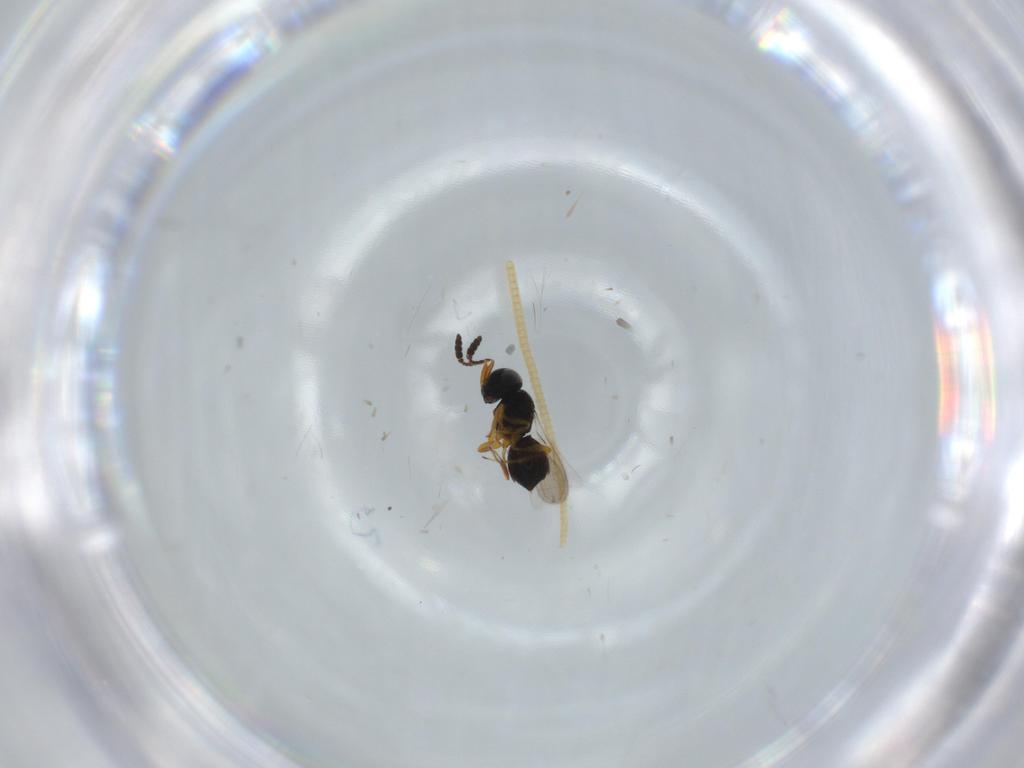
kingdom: Animalia
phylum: Arthropoda
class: Insecta
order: Hymenoptera
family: Scelionidae
